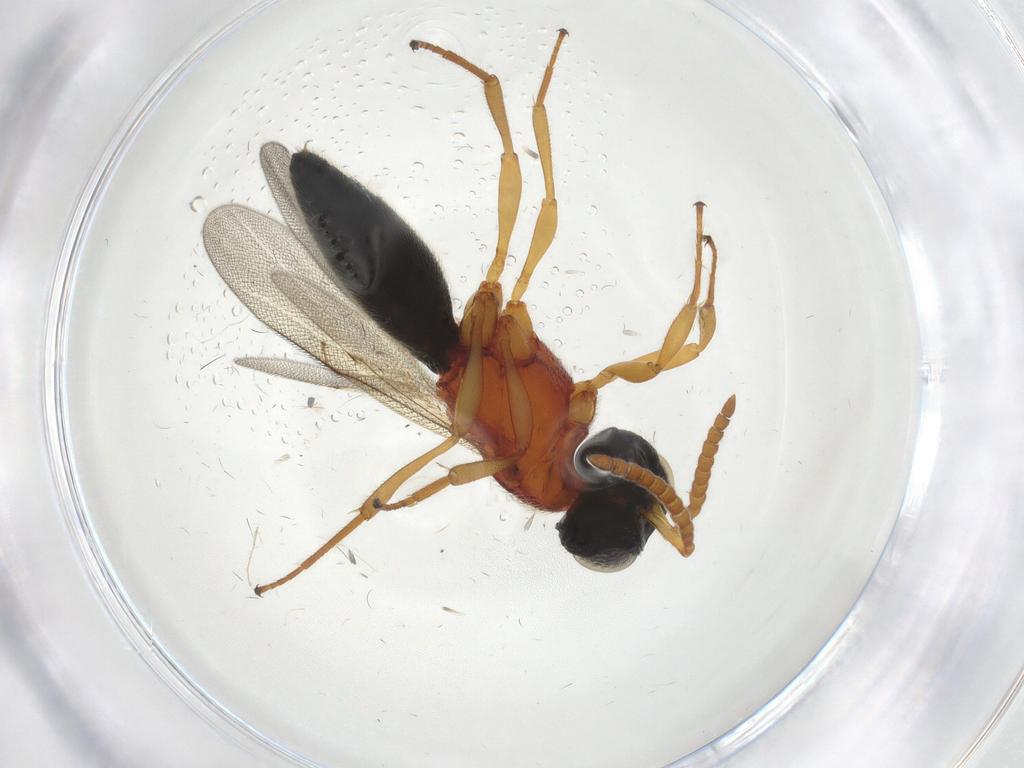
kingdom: Animalia
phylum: Arthropoda
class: Insecta
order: Hymenoptera
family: Scelionidae
